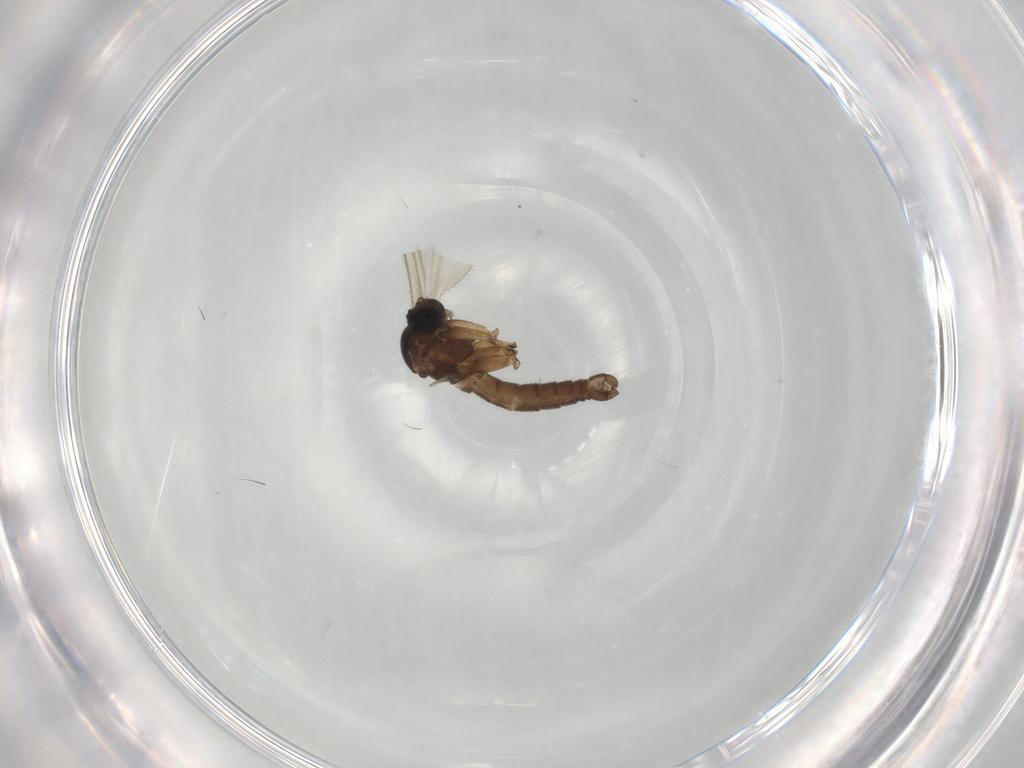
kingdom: Animalia
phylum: Arthropoda
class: Insecta
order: Diptera
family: Sciaridae
